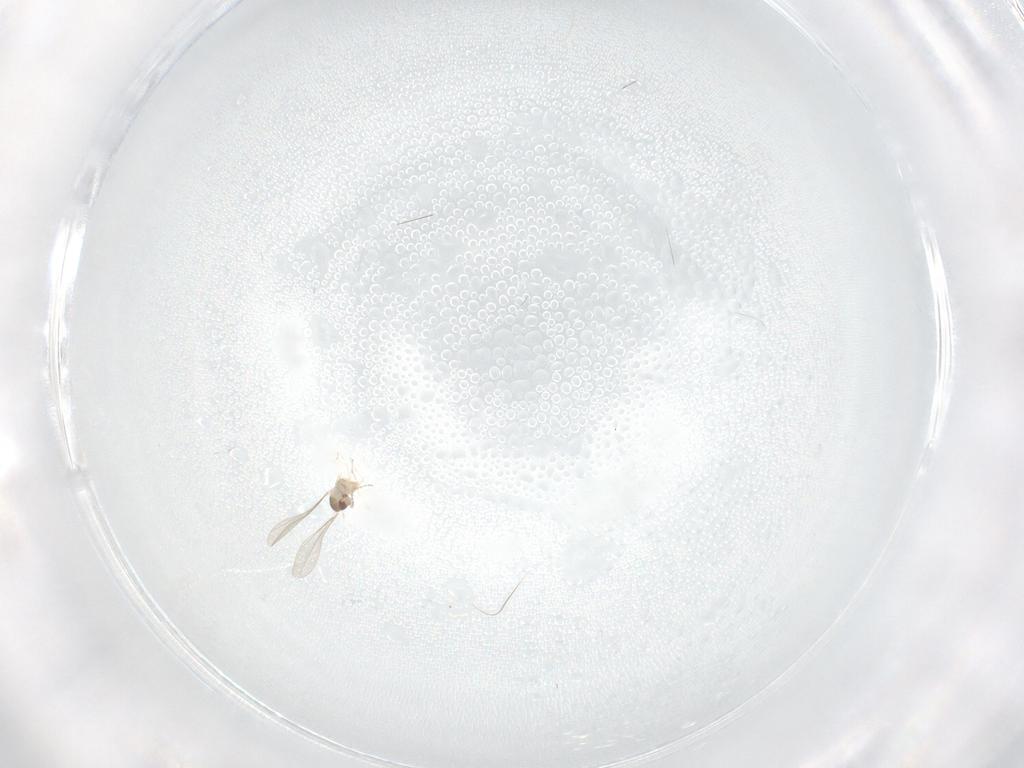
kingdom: Animalia
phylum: Arthropoda
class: Insecta
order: Diptera
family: Cecidomyiidae
